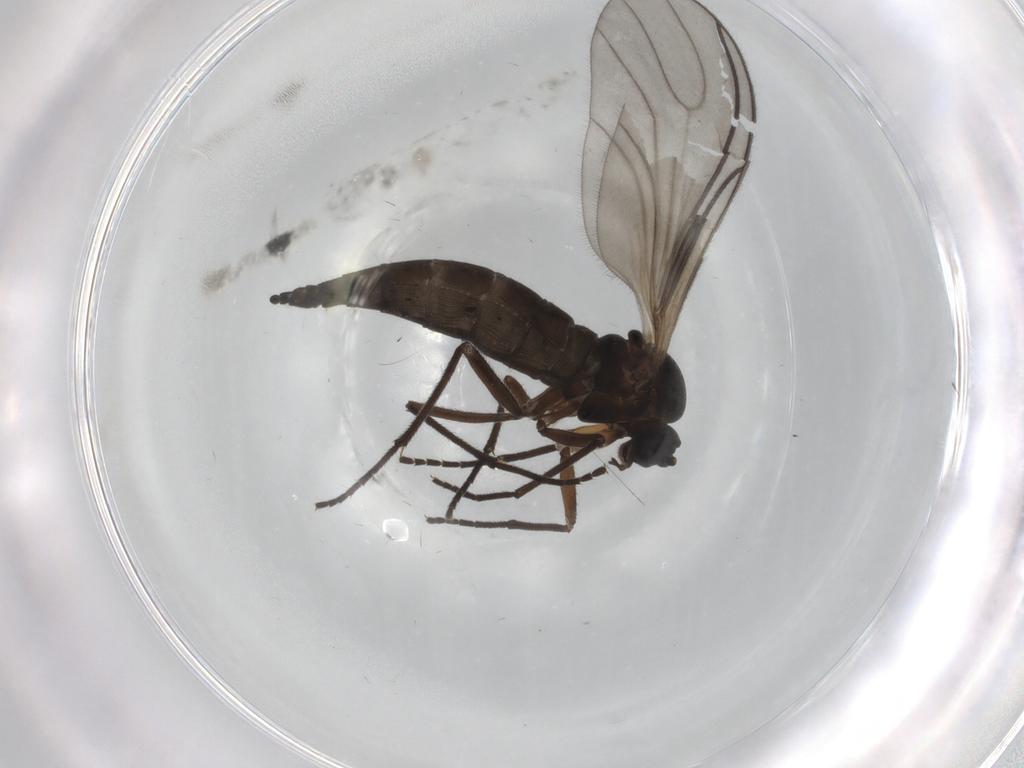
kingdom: Animalia
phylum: Arthropoda
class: Insecta
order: Diptera
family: Sciaridae
